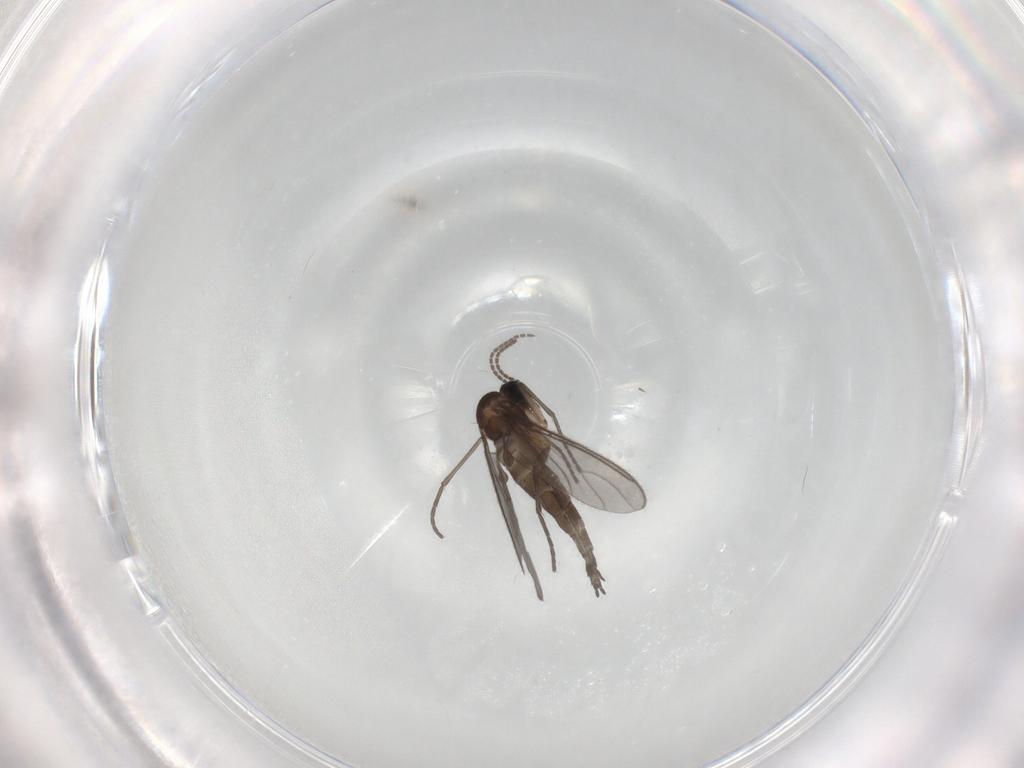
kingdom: Animalia
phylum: Arthropoda
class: Insecta
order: Diptera
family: Sciaridae
